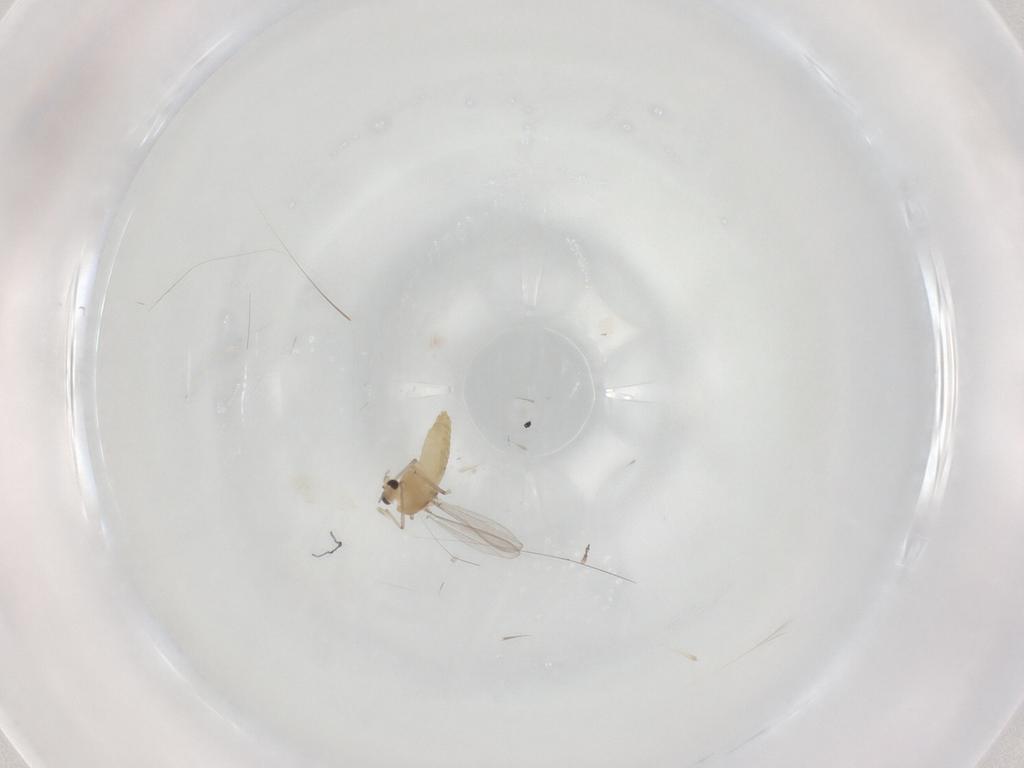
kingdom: Animalia
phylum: Arthropoda
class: Insecta
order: Diptera
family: Chironomidae
